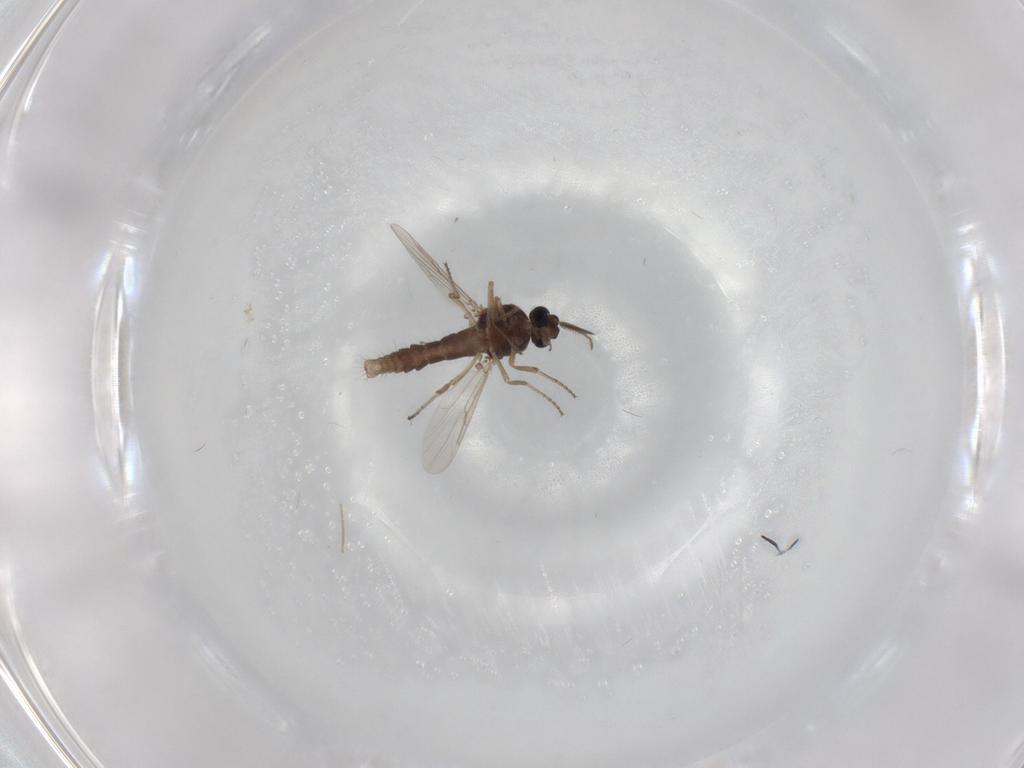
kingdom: Animalia
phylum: Arthropoda
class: Insecta
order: Diptera
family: Ceratopogonidae
